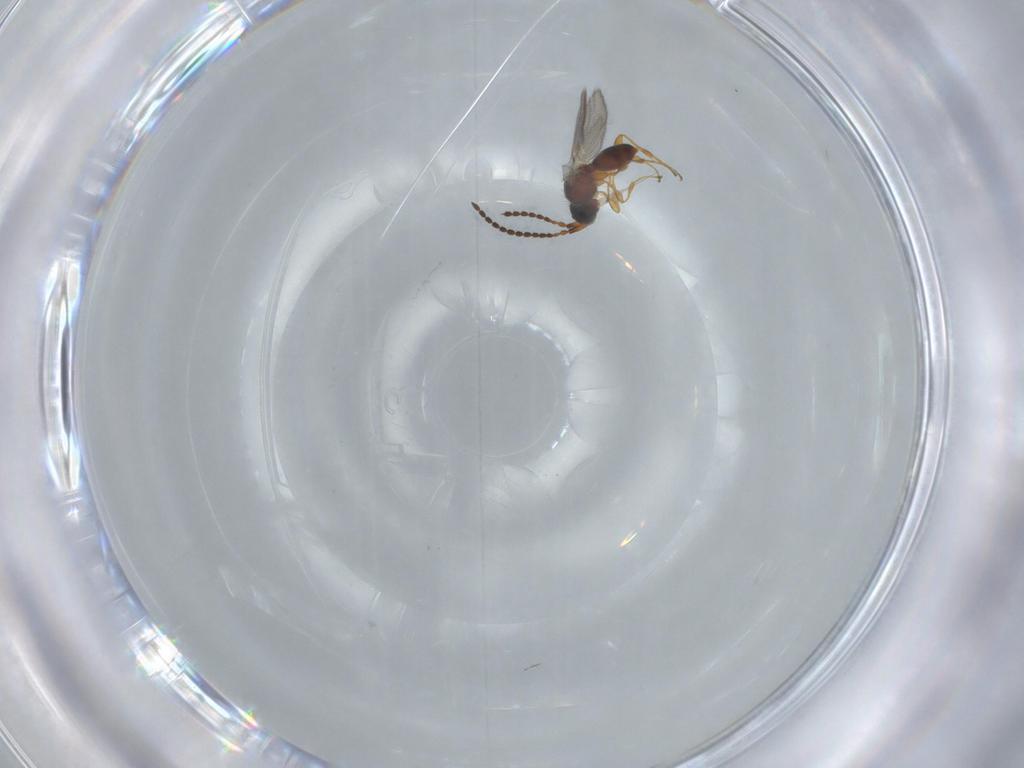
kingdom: Animalia
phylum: Arthropoda
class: Insecta
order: Hymenoptera
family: Diapriidae
